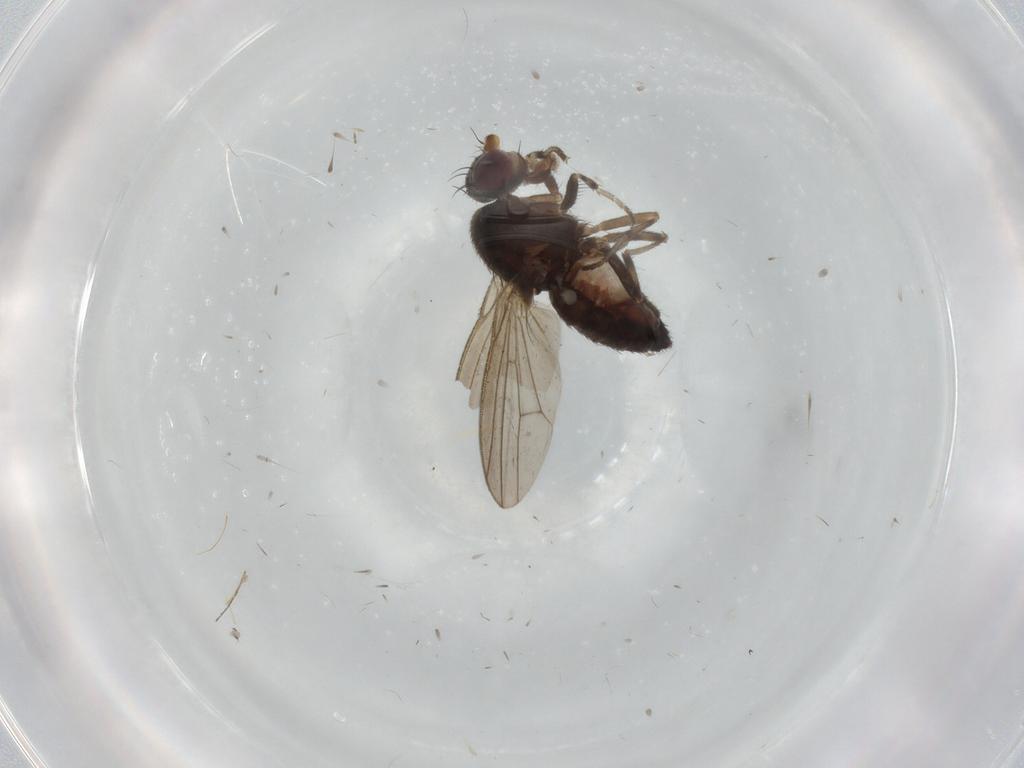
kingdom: Animalia
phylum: Arthropoda
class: Insecta
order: Diptera
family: Heleomyzidae
